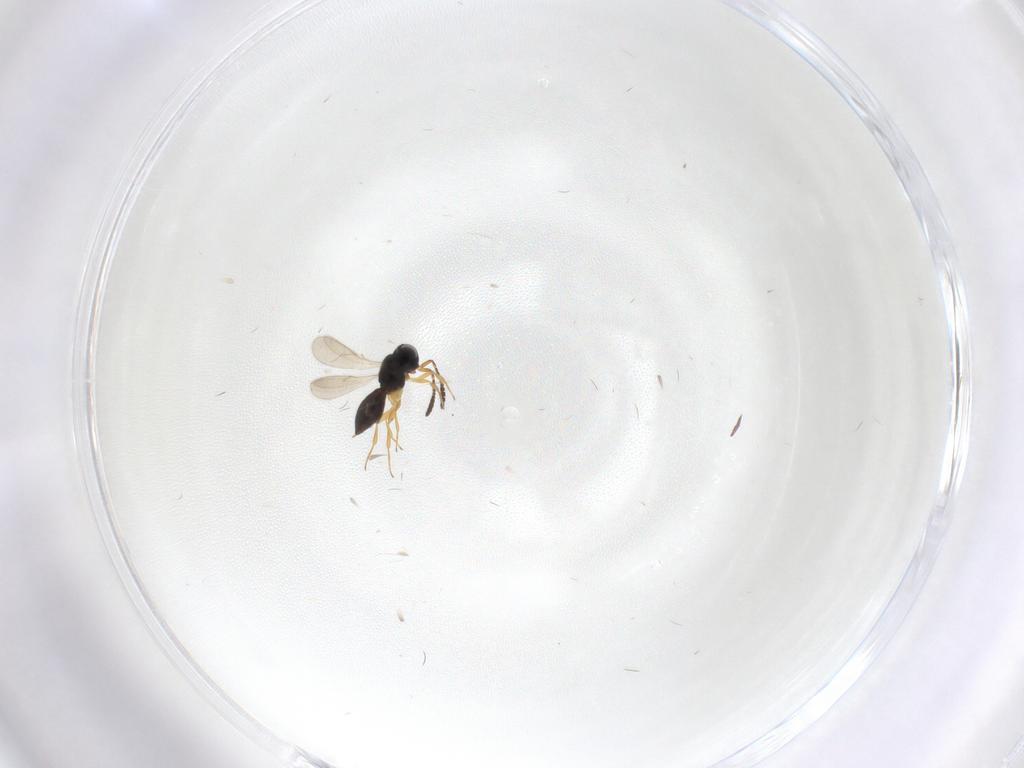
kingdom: Animalia
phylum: Arthropoda
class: Insecta
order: Hymenoptera
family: Scelionidae
